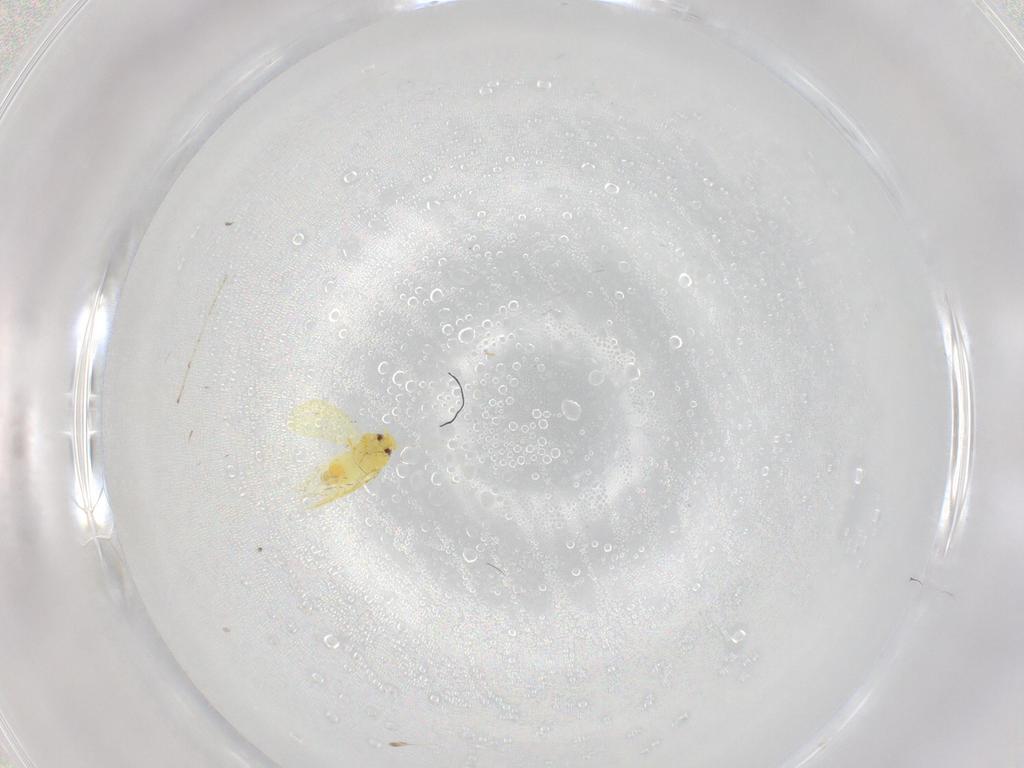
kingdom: Animalia
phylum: Arthropoda
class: Insecta
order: Hemiptera
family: Aleyrodidae
